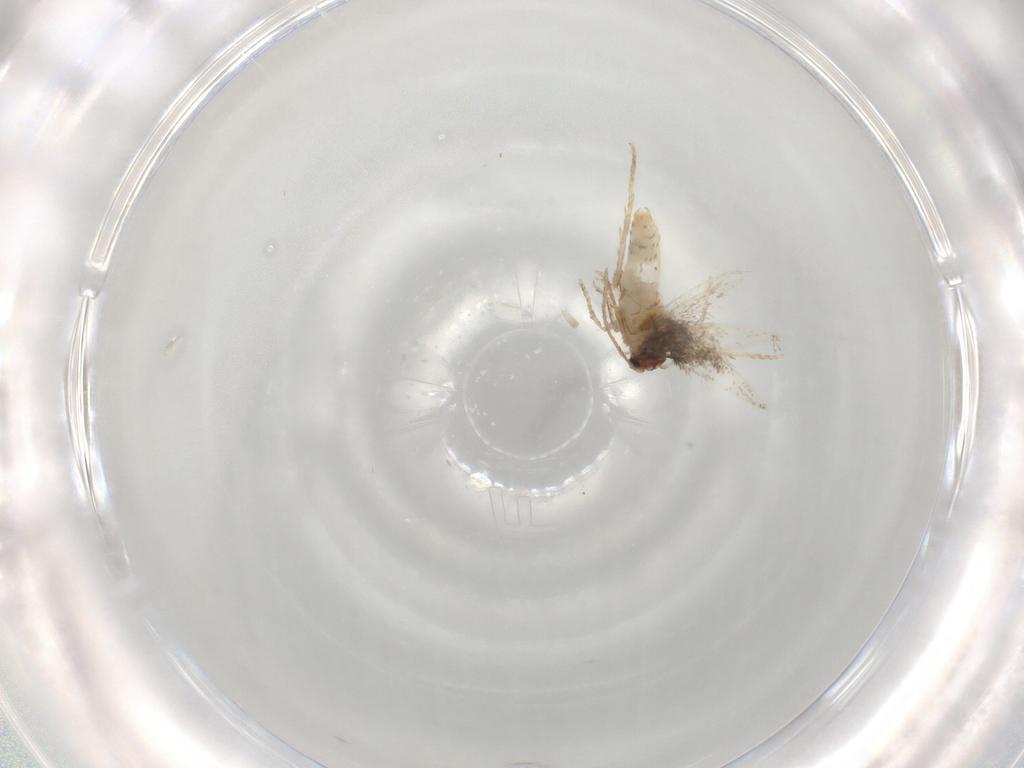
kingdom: Animalia
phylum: Arthropoda
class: Insecta
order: Lepidoptera
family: Nepticulidae
